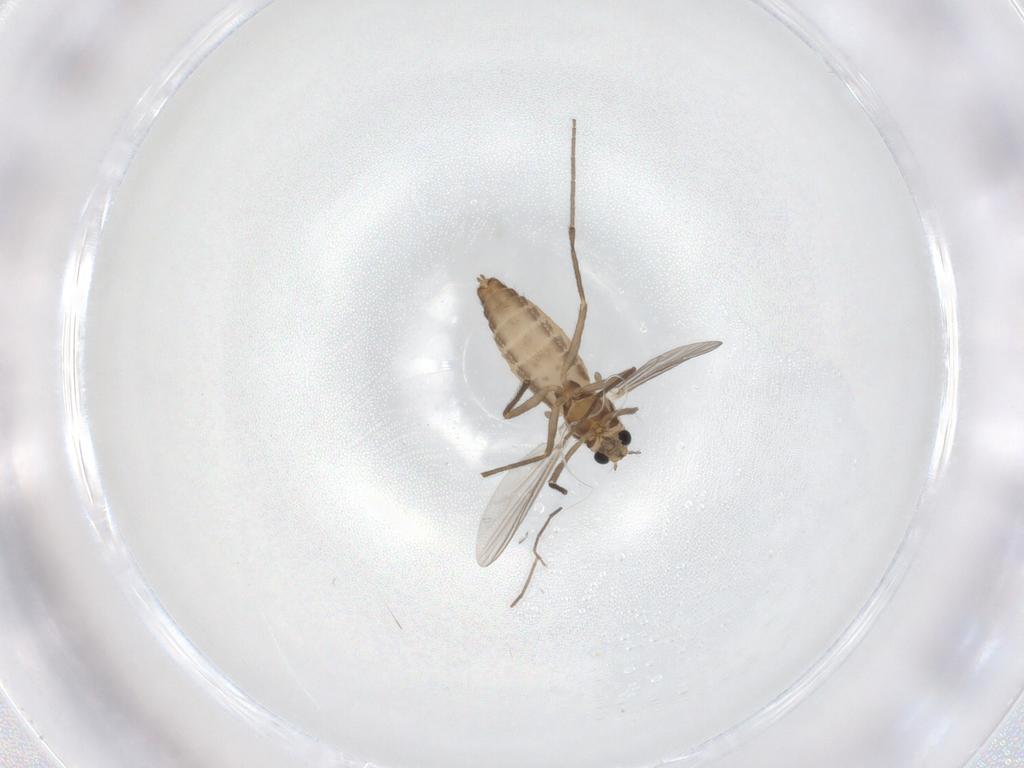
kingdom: Animalia
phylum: Arthropoda
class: Insecta
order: Diptera
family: Chironomidae
